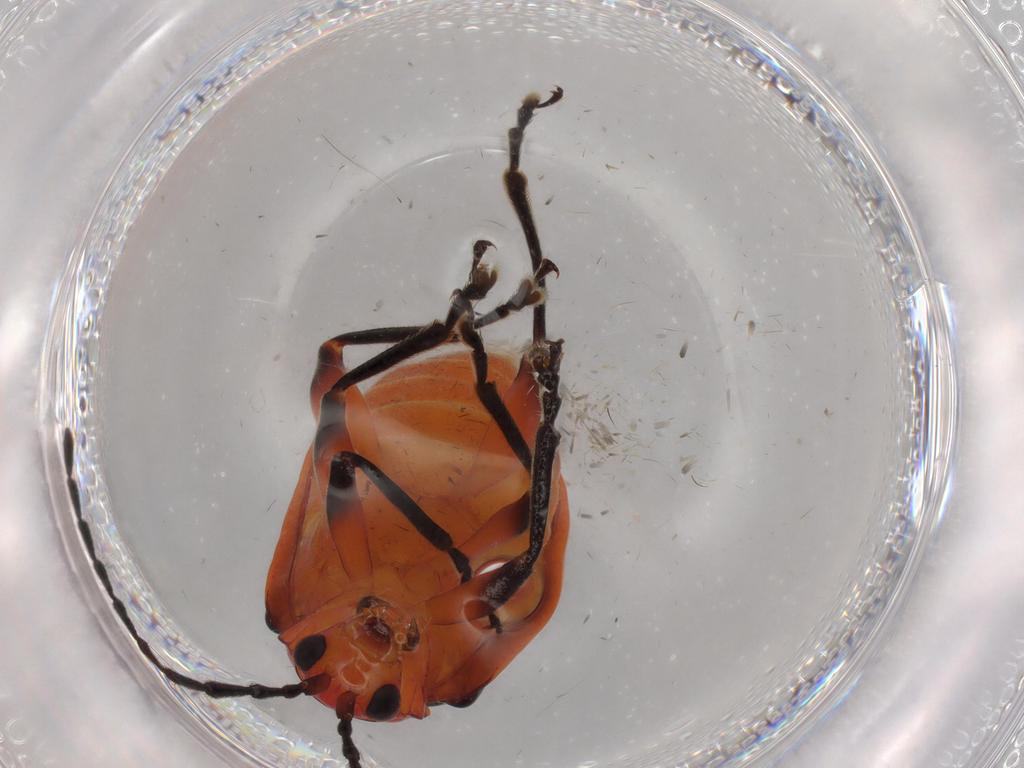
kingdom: Animalia
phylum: Arthropoda
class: Insecta
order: Coleoptera
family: Chrysomelidae
